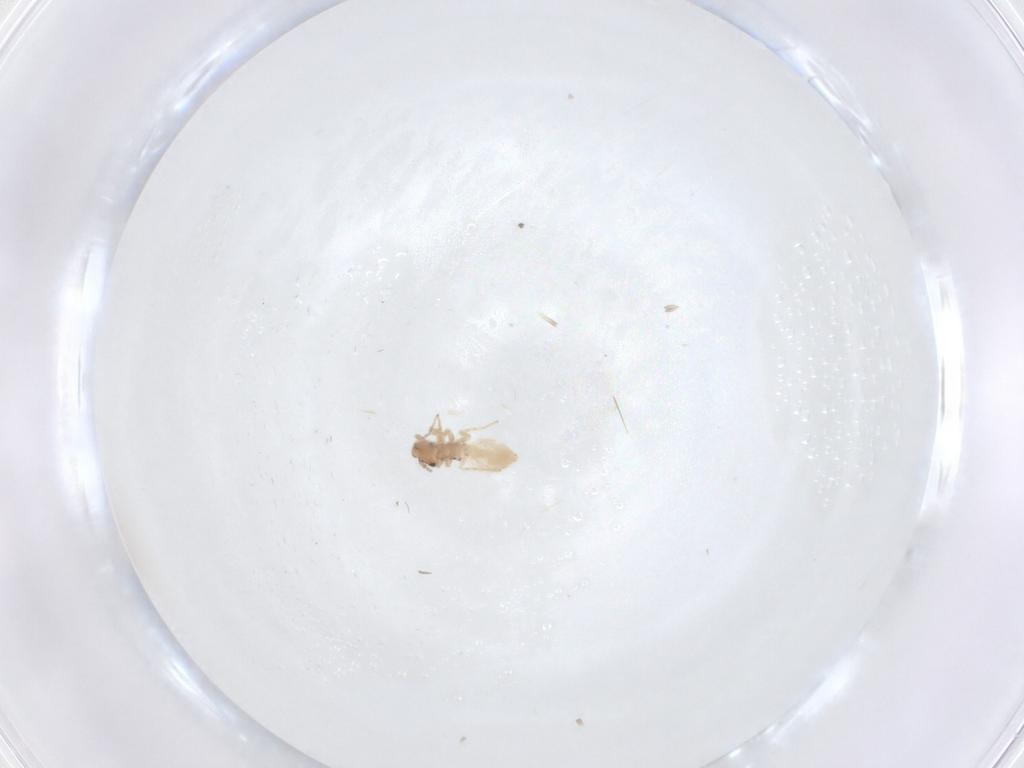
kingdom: Animalia
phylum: Arthropoda
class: Insecta
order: Psocodea
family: Lepidopsocidae
